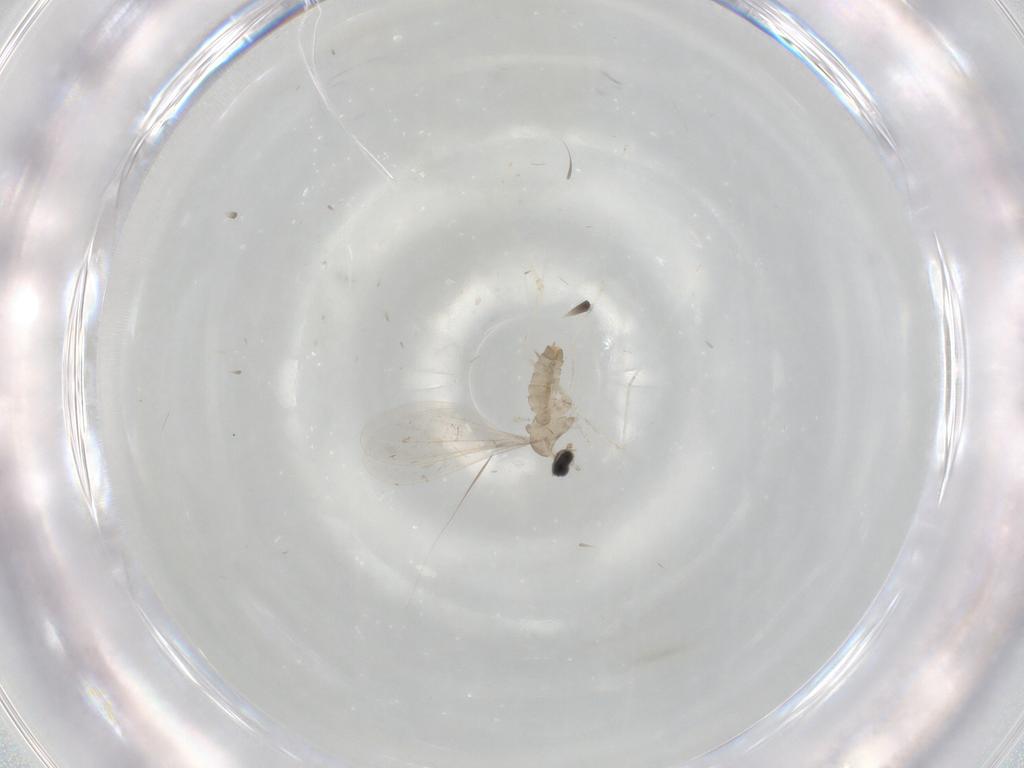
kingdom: Animalia
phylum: Arthropoda
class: Insecta
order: Diptera
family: Psychodidae
